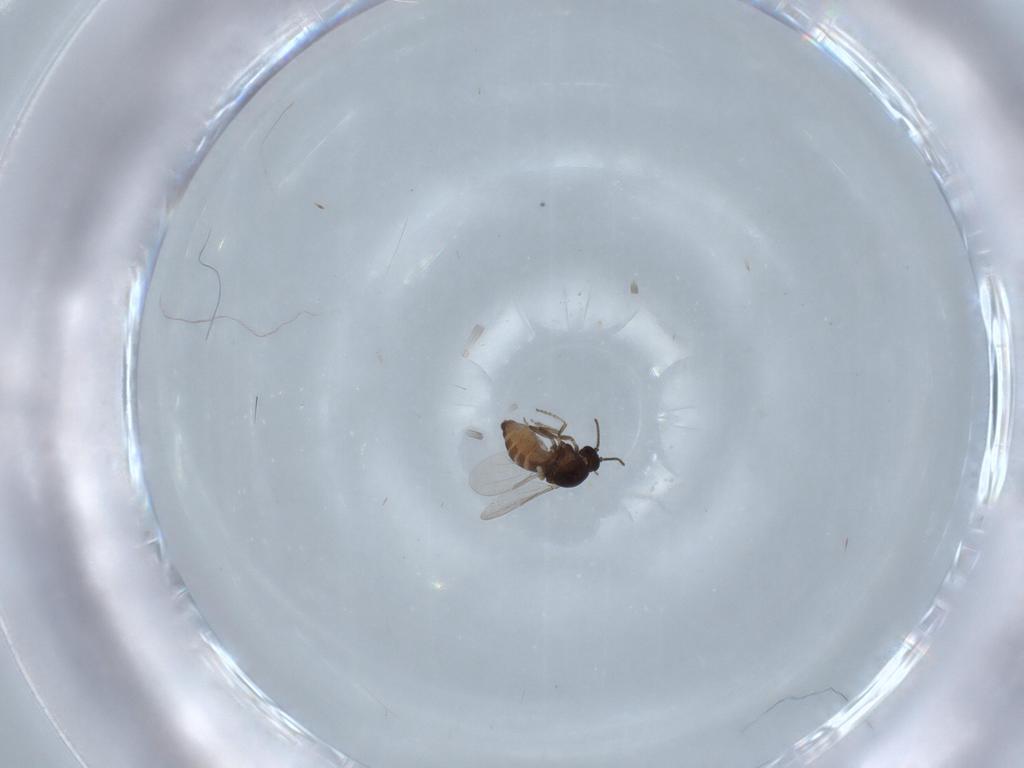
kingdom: Animalia
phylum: Arthropoda
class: Insecta
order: Diptera
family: Ceratopogonidae
